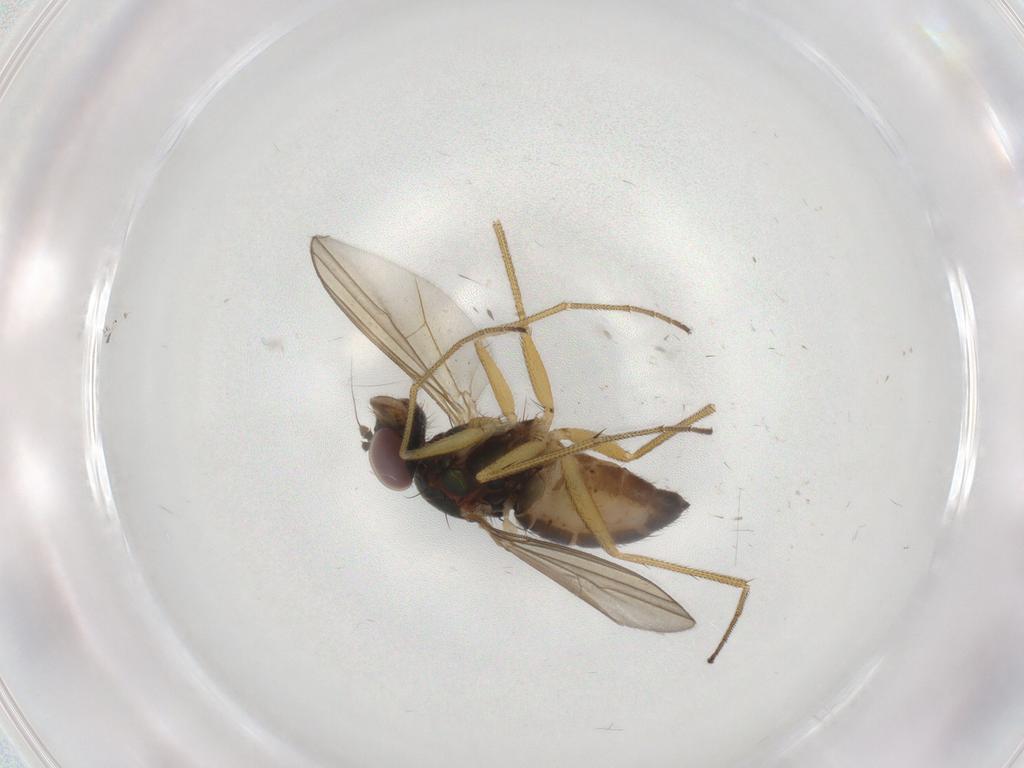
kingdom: Animalia
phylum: Arthropoda
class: Insecta
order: Diptera
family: Dolichopodidae
